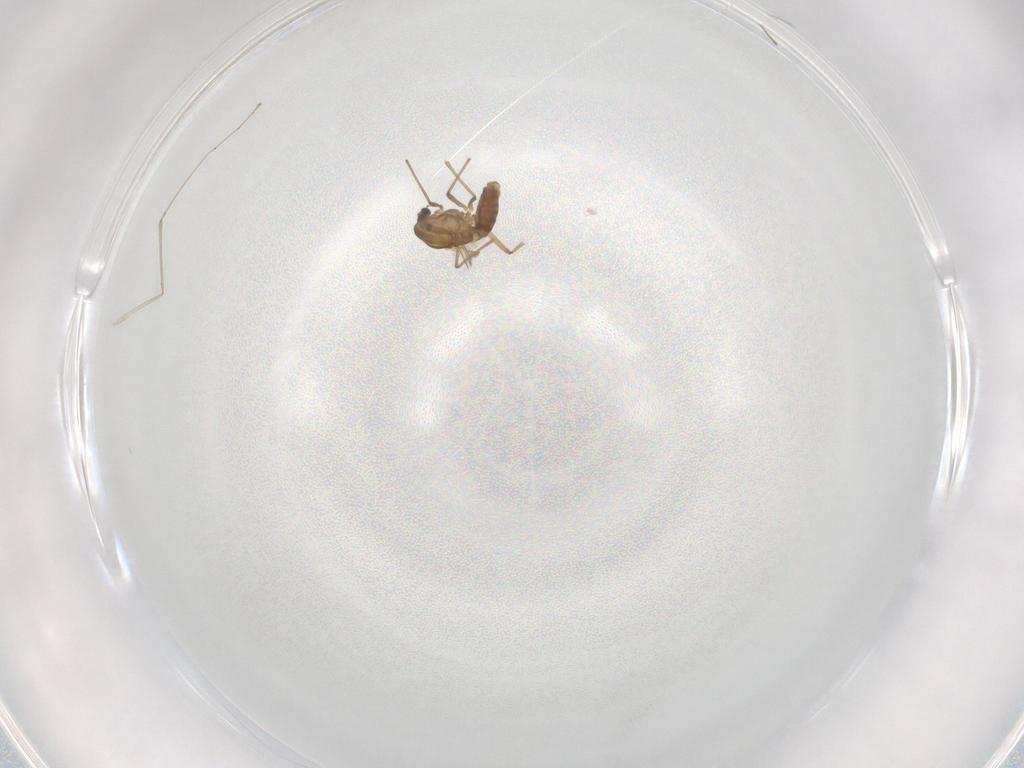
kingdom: Animalia
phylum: Arthropoda
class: Insecta
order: Diptera
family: Chironomidae
